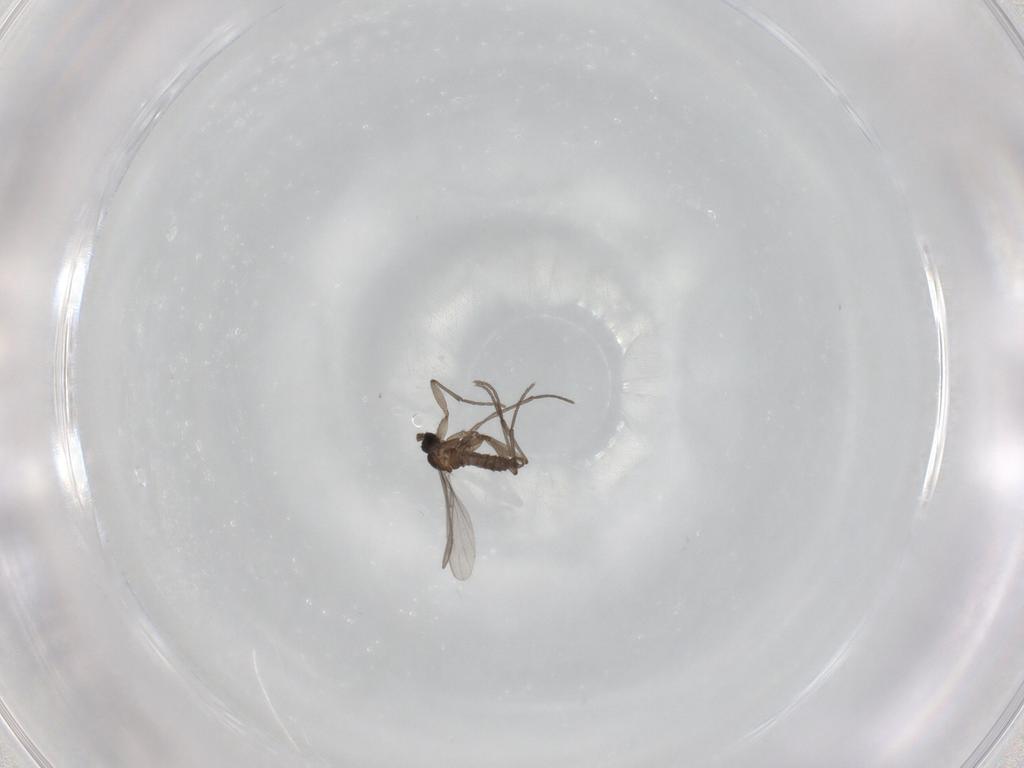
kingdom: Animalia
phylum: Arthropoda
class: Insecta
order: Diptera
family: Sciaridae
